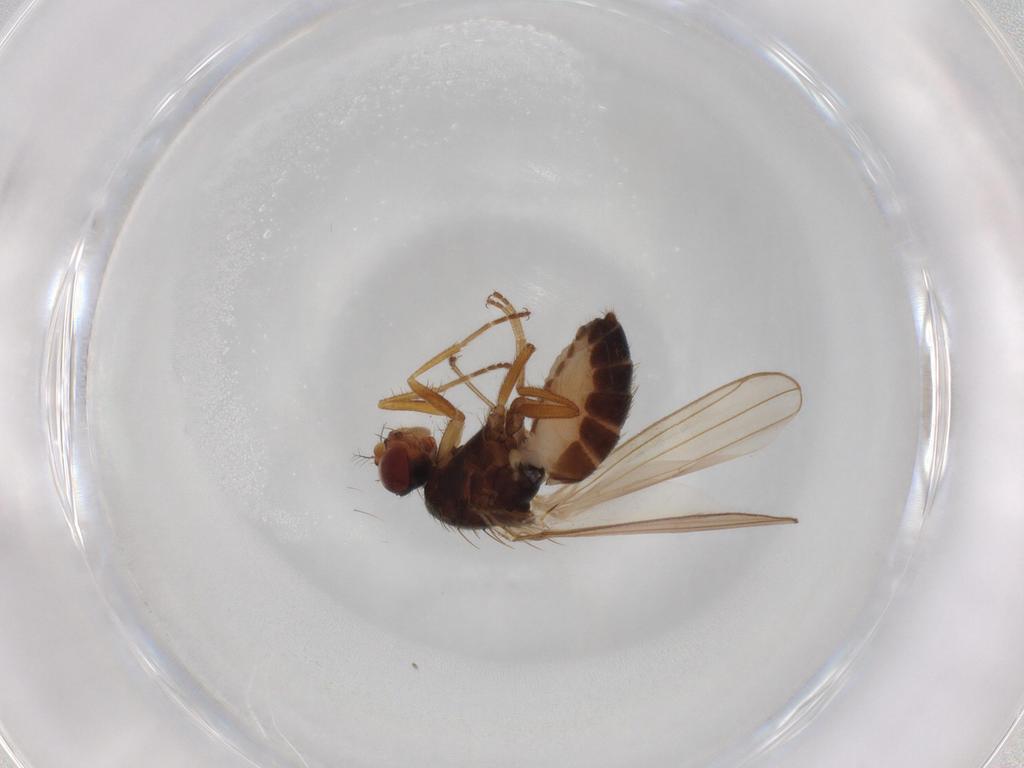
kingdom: Animalia
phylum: Arthropoda
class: Insecta
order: Diptera
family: Drosophilidae
